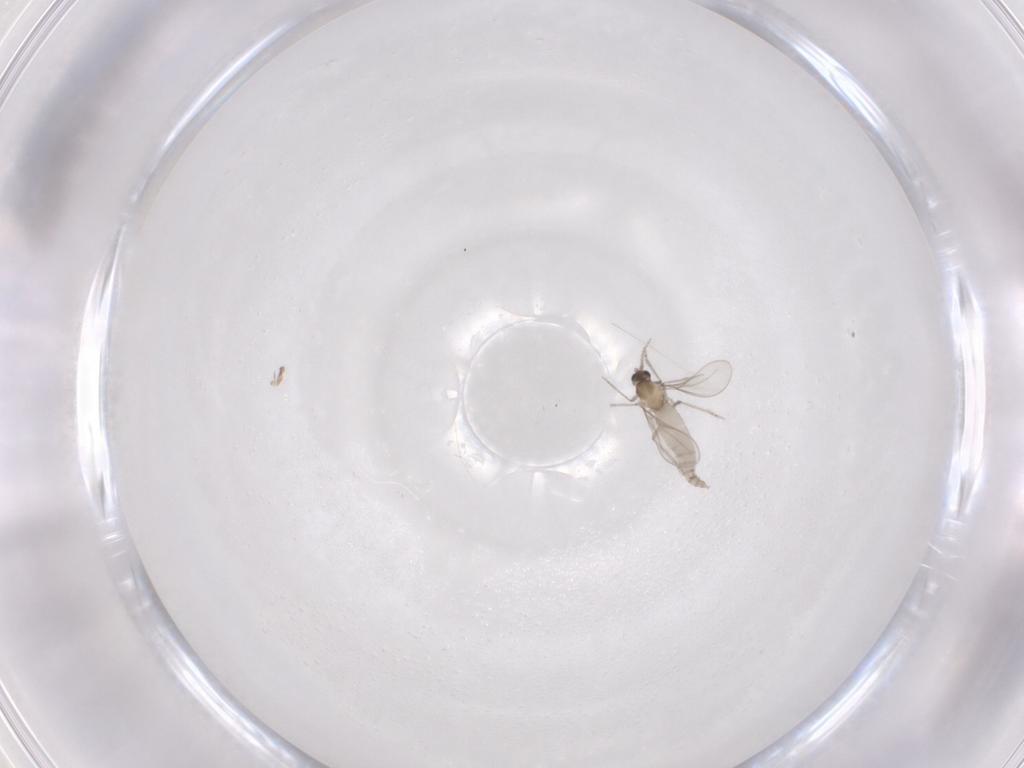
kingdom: Animalia
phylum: Arthropoda
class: Insecta
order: Diptera
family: Cecidomyiidae
